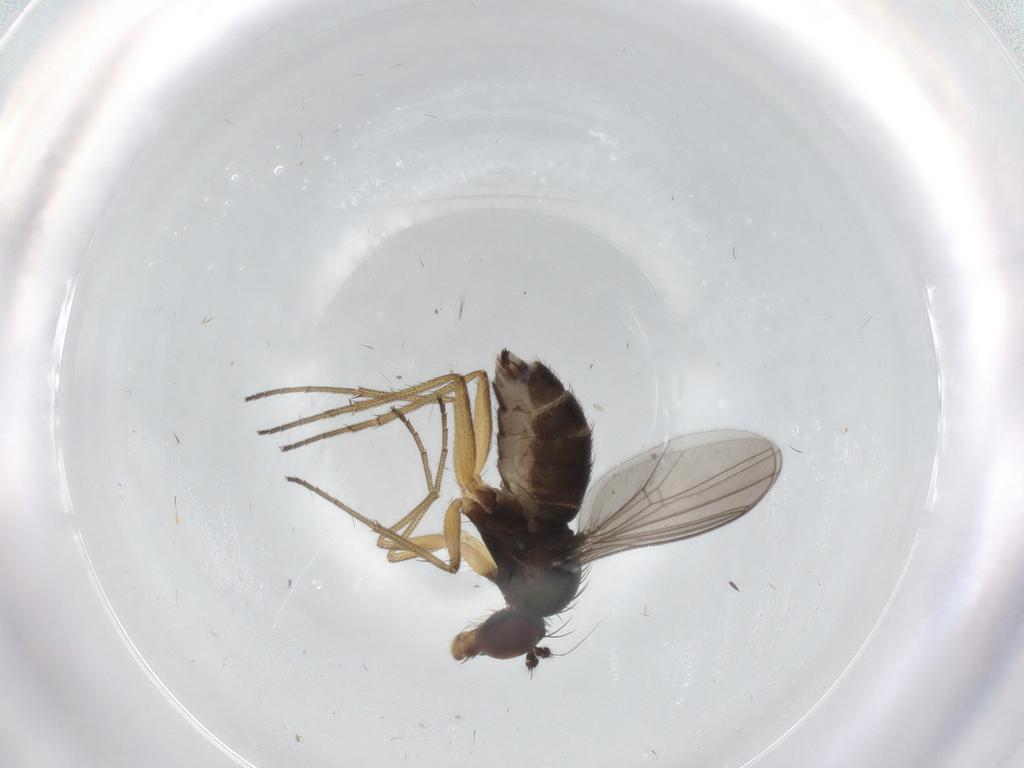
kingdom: Animalia
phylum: Arthropoda
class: Insecta
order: Diptera
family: Dolichopodidae
